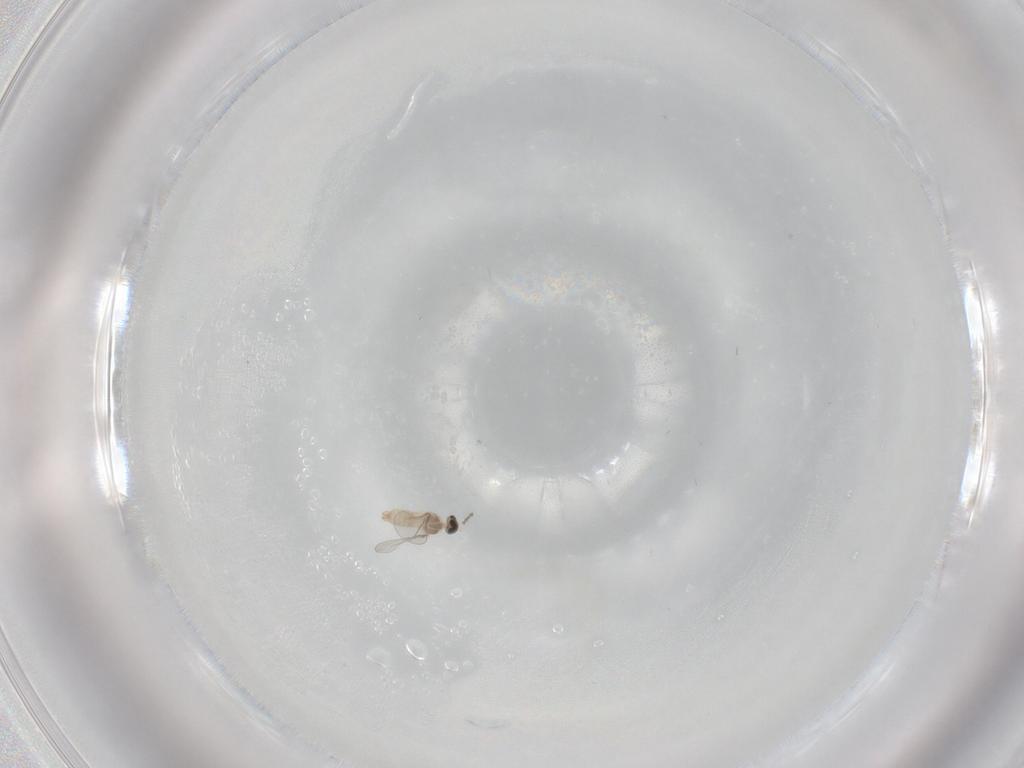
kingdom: Animalia
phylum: Arthropoda
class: Insecta
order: Diptera
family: Cecidomyiidae
